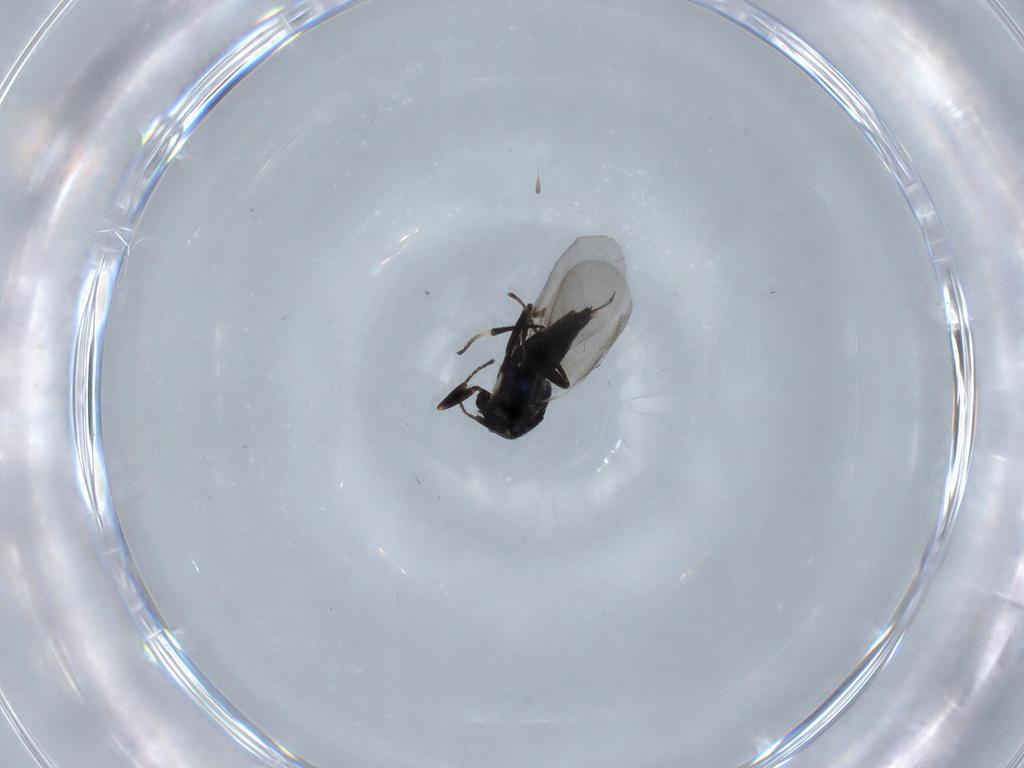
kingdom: Animalia
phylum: Arthropoda
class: Insecta
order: Hymenoptera
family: Encyrtidae
